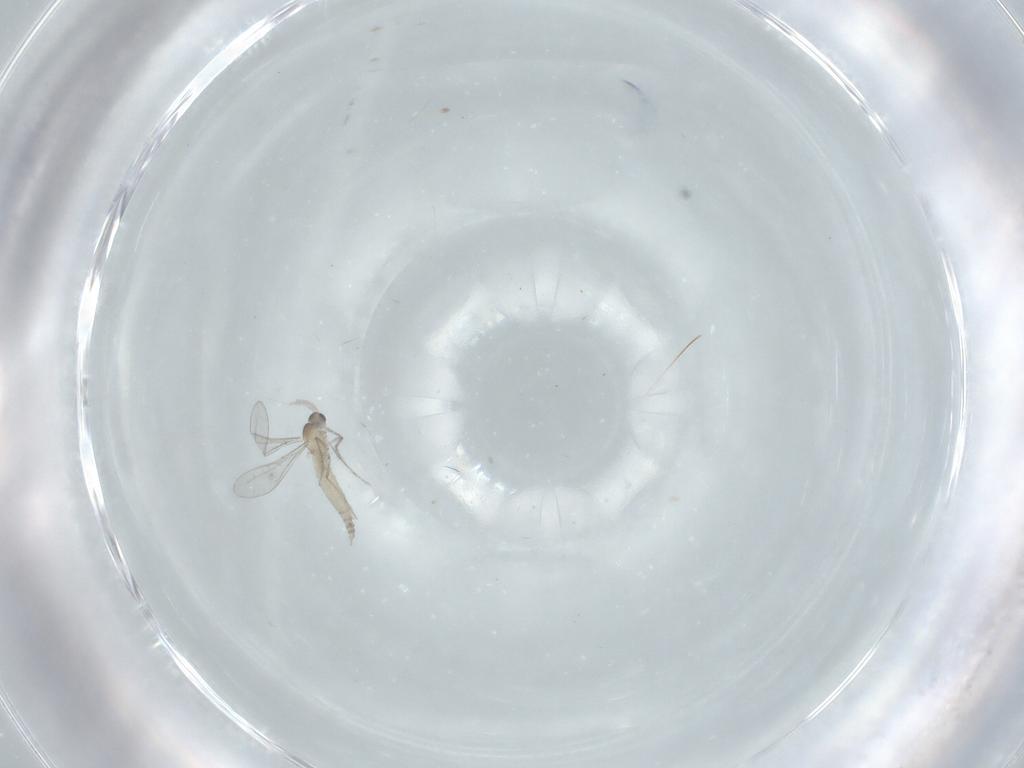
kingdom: Animalia
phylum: Arthropoda
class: Insecta
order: Diptera
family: Cecidomyiidae
